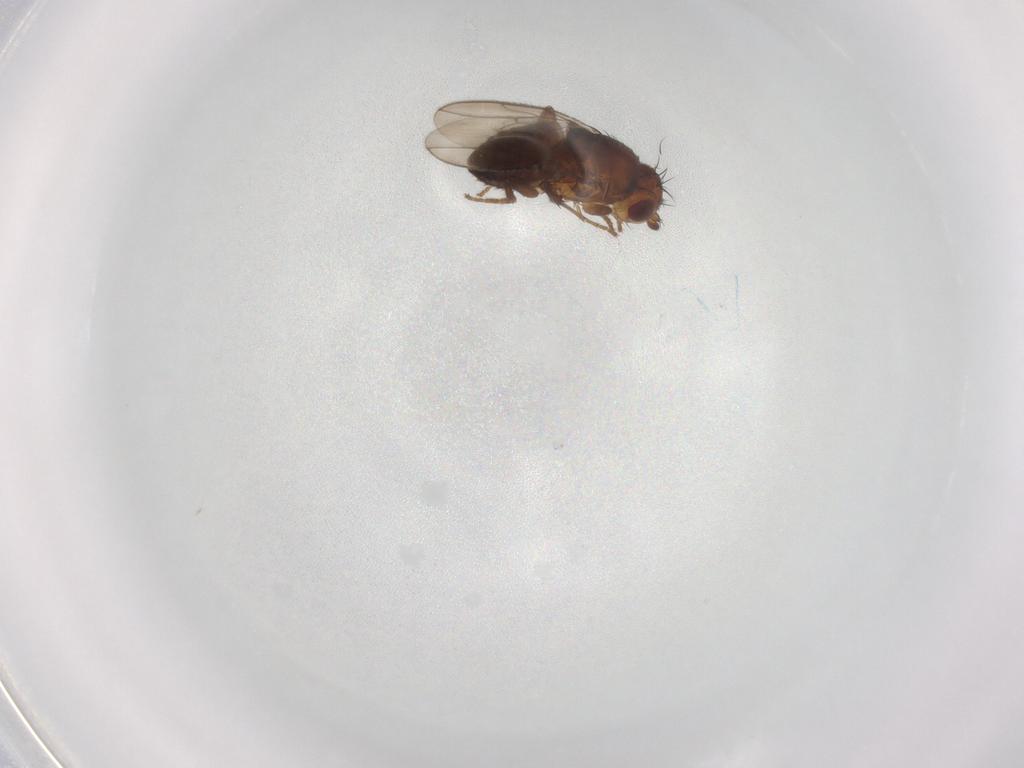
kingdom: Animalia
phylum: Arthropoda
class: Insecta
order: Diptera
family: Sphaeroceridae
